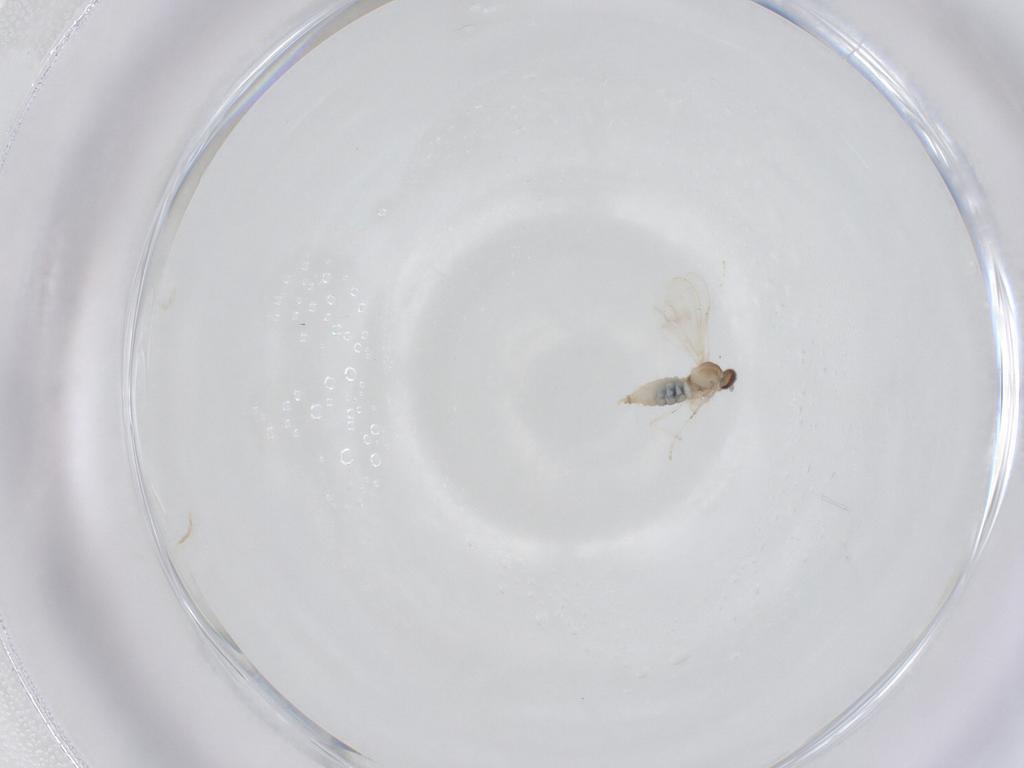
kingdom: Animalia
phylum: Arthropoda
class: Insecta
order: Diptera
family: Cecidomyiidae
